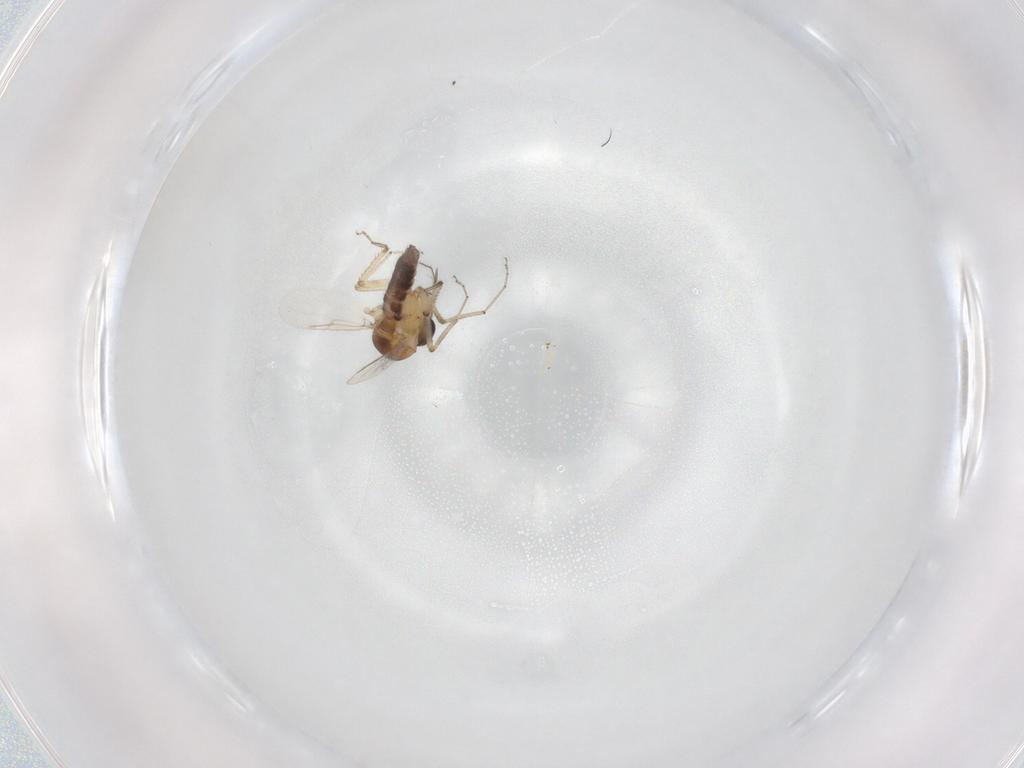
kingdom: Animalia
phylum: Arthropoda
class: Insecta
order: Diptera
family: Ceratopogonidae
